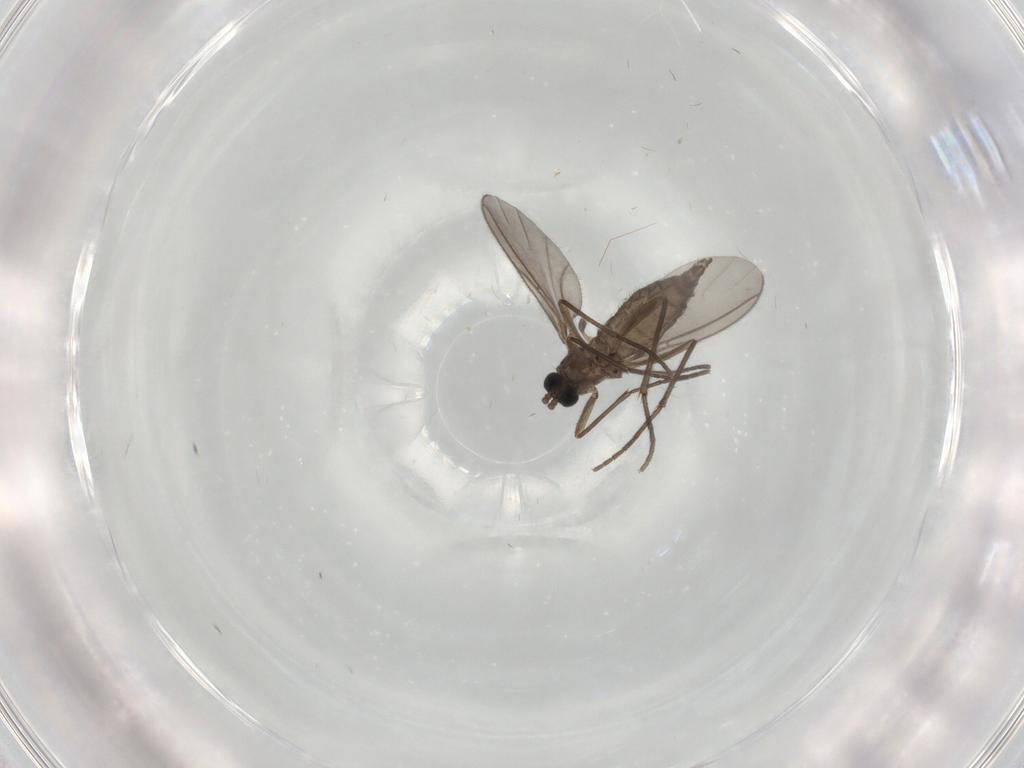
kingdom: Animalia
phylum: Arthropoda
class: Insecta
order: Diptera
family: Sciaridae
